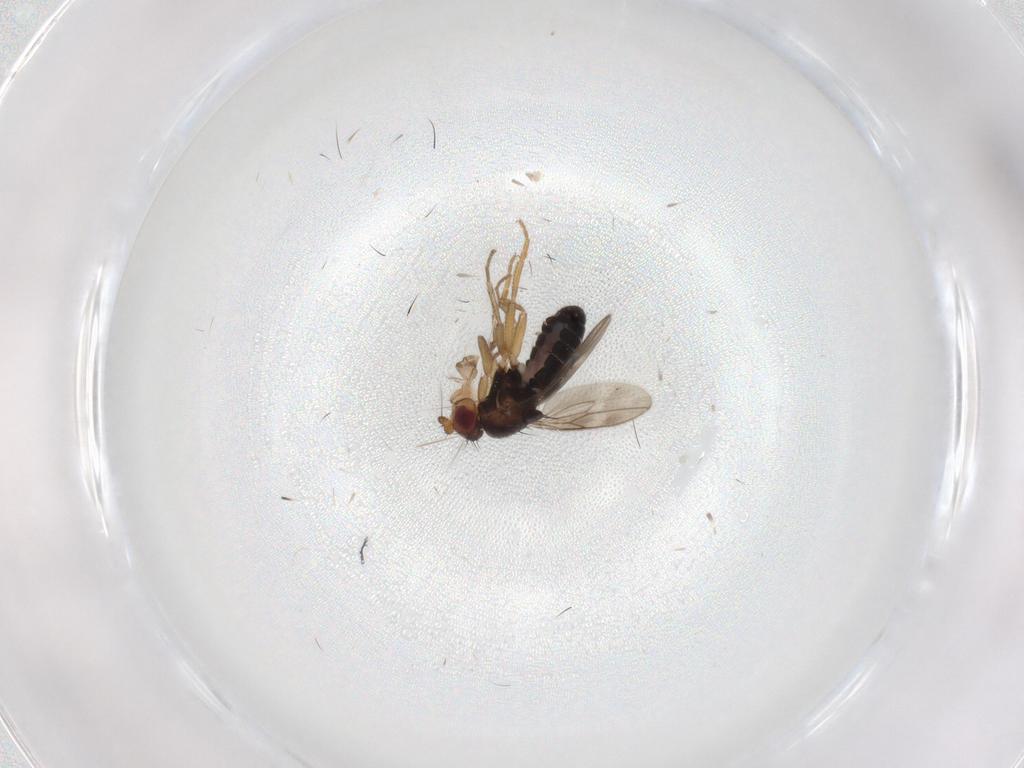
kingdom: Animalia
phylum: Arthropoda
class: Insecta
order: Diptera
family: Sphaeroceridae
